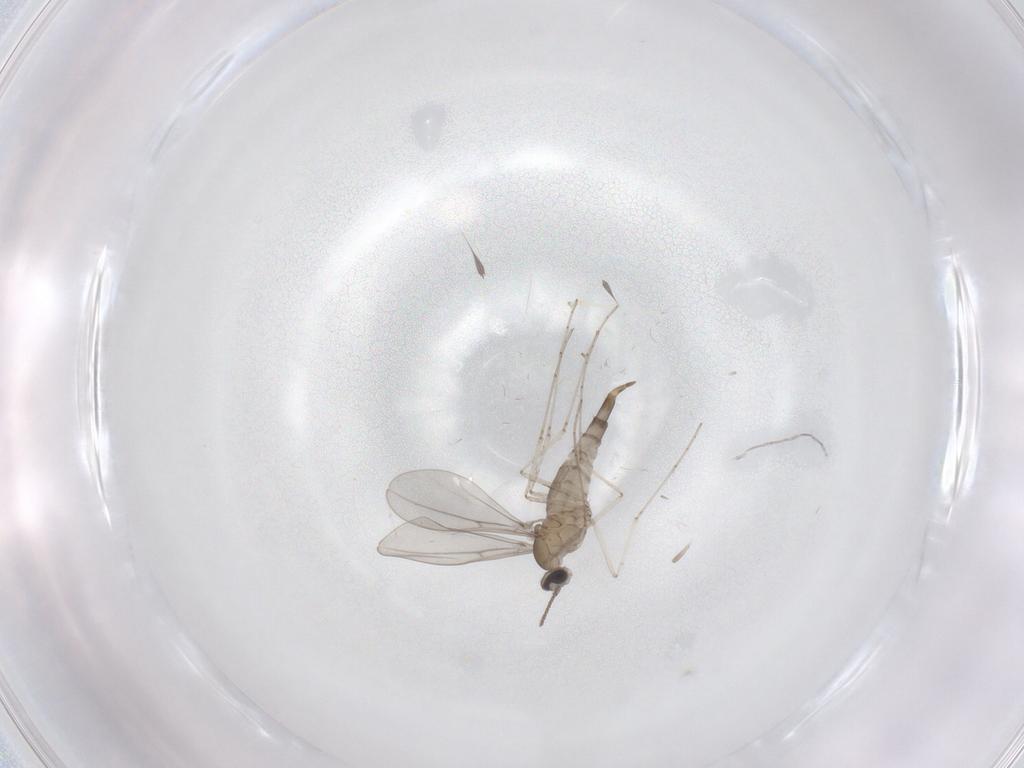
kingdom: Animalia
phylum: Arthropoda
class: Insecta
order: Diptera
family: Cecidomyiidae
